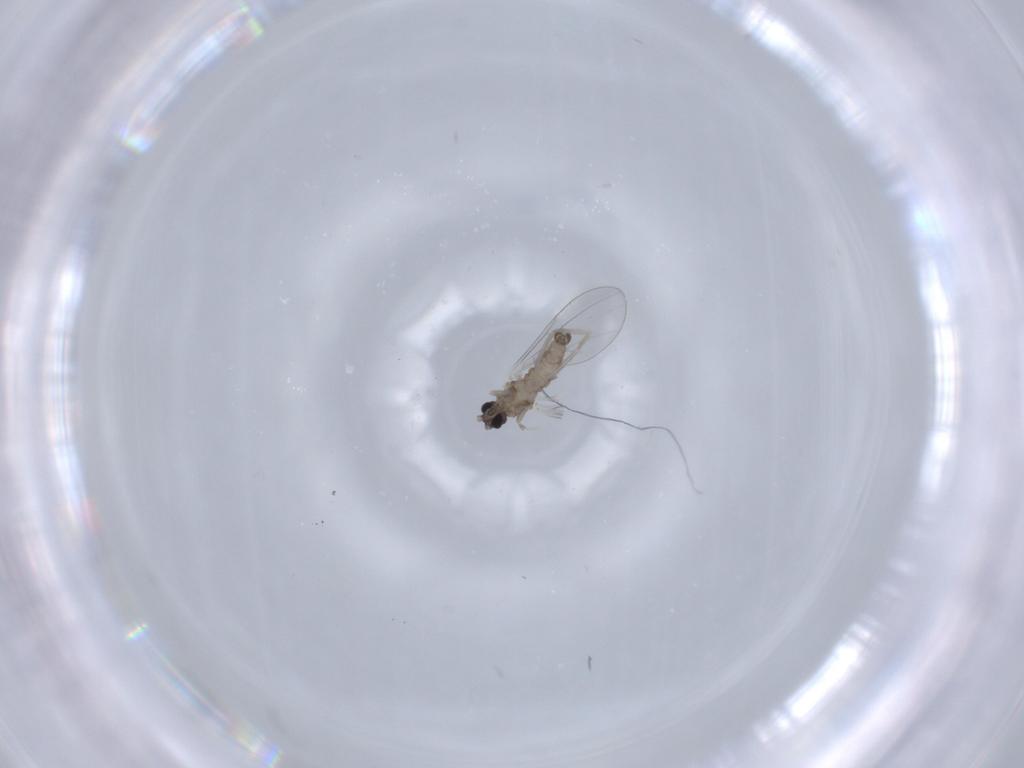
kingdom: Animalia
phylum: Arthropoda
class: Insecta
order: Diptera
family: Cecidomyiidae
